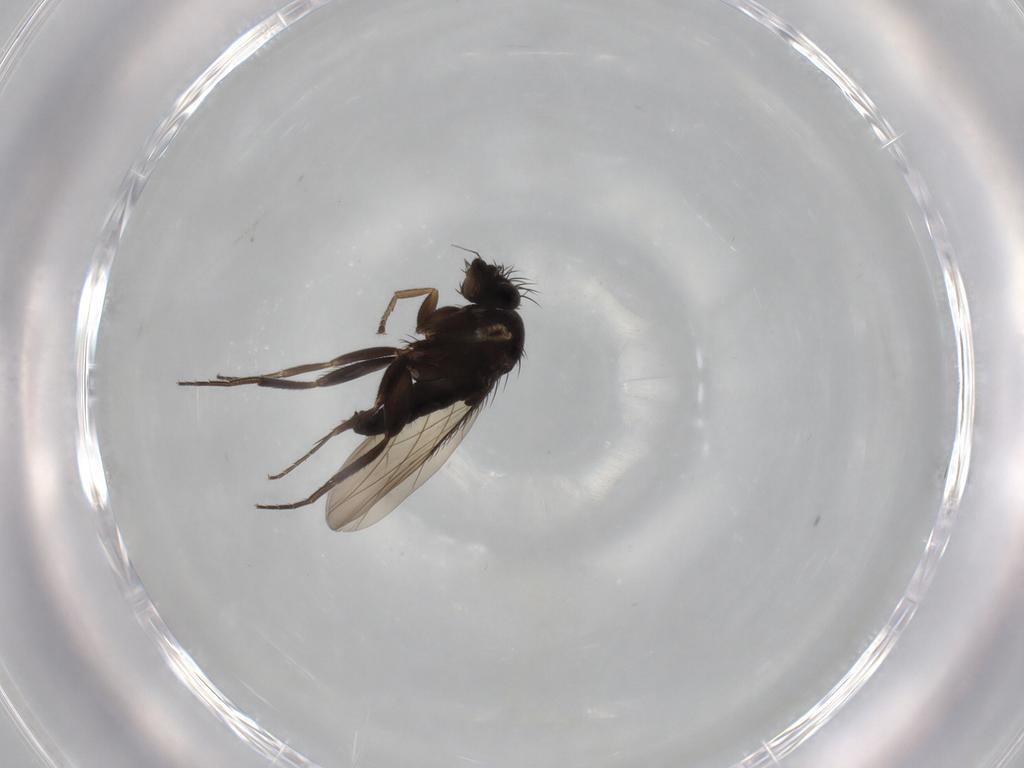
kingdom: Animalia
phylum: Arthropoda
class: Insecta
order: Diptera
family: Phoridae
